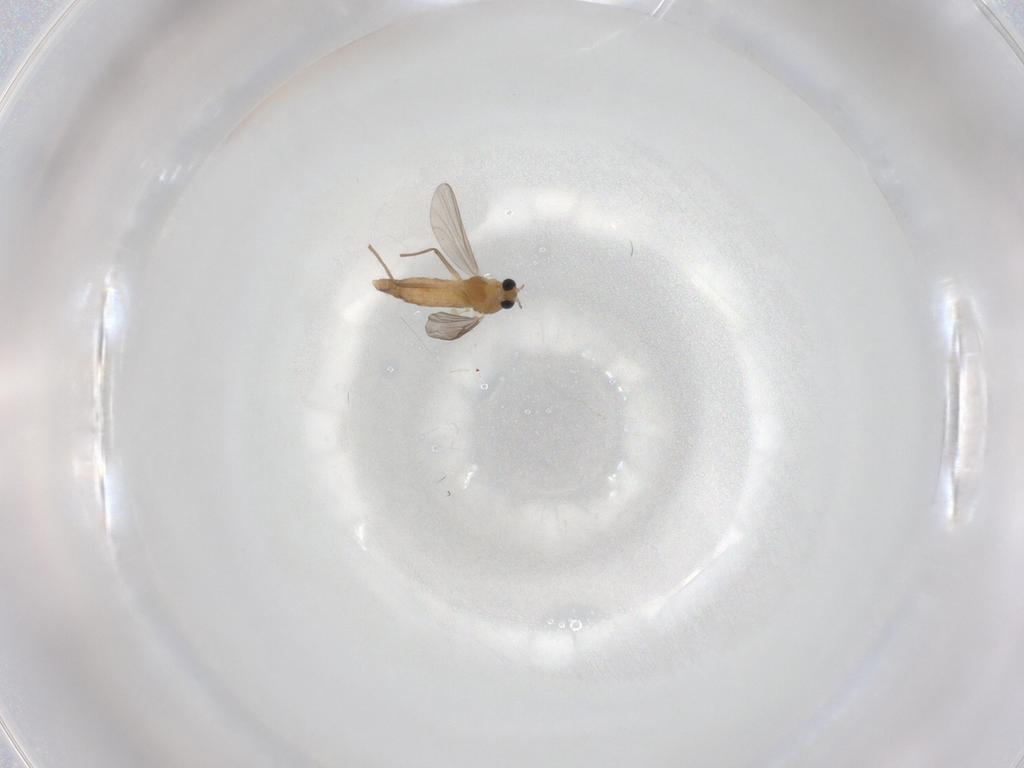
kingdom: Animalia
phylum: Arthropoda
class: Insecta
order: Diptera
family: Chironomidae
